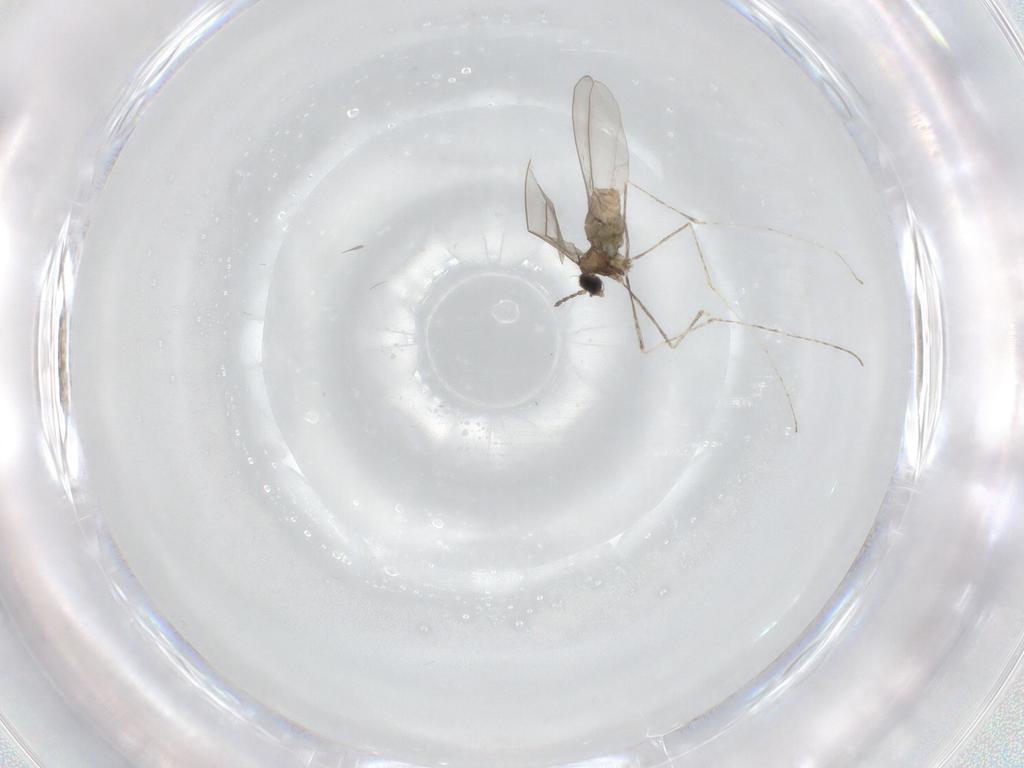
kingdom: Animalia
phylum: Arthropoda
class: Insecta
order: Diptera
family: Cecidomyiidae
